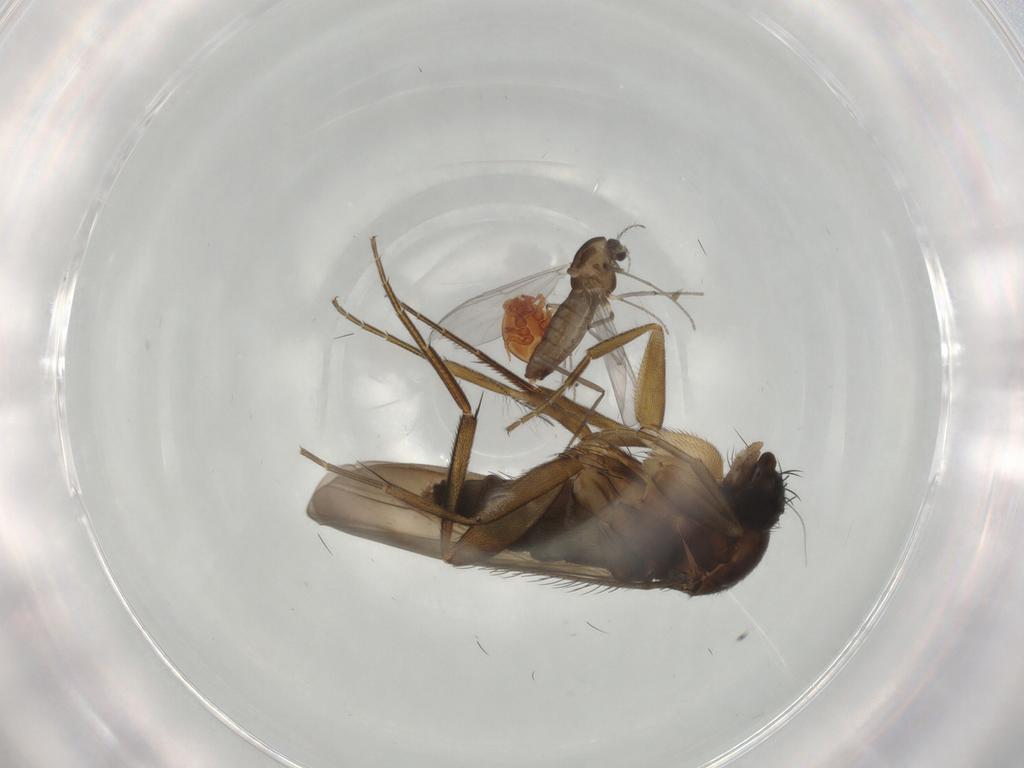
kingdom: Animalia
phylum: Arthropoda
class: Insecta
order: Diptera
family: Phoridae
